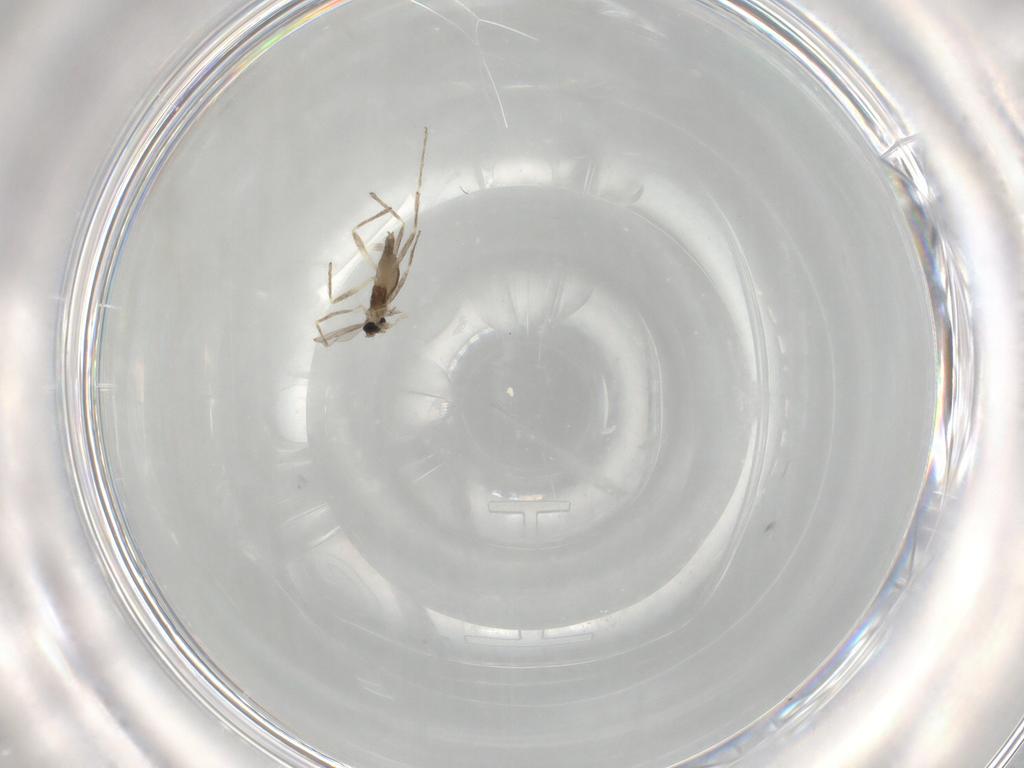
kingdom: Animalia
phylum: Arthropoda
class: Insecta
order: Diptera
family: Chironomidae
